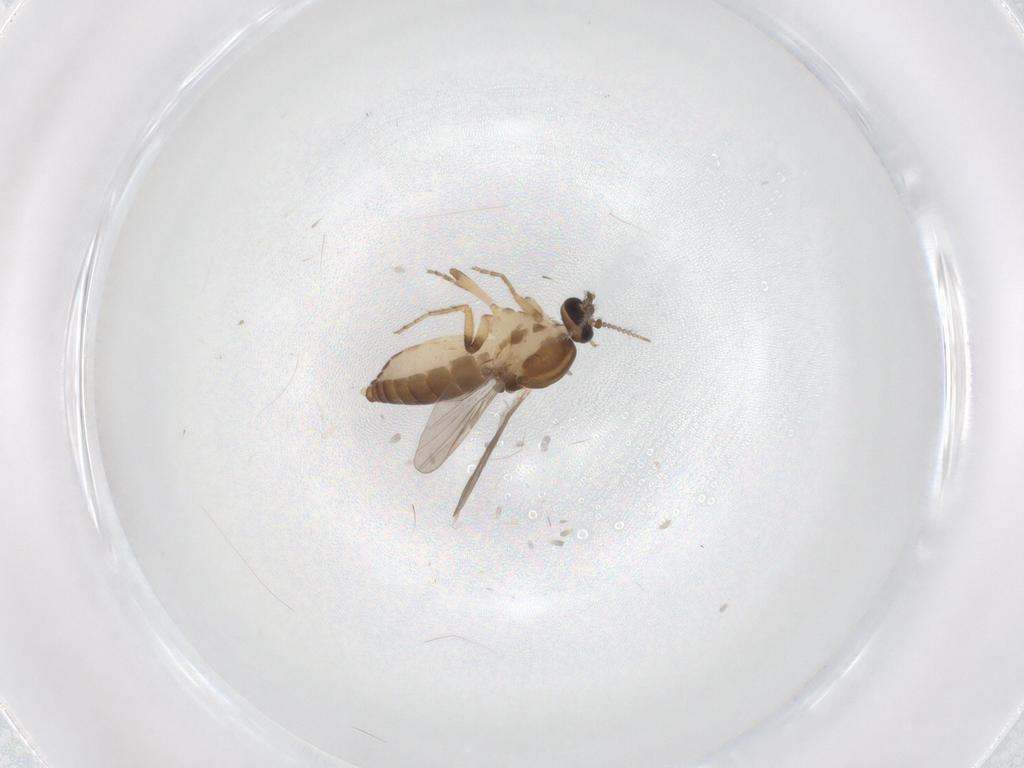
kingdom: Animalia
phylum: Arthropoda
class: Insecta
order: Diptera
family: Ceratopogonidae
